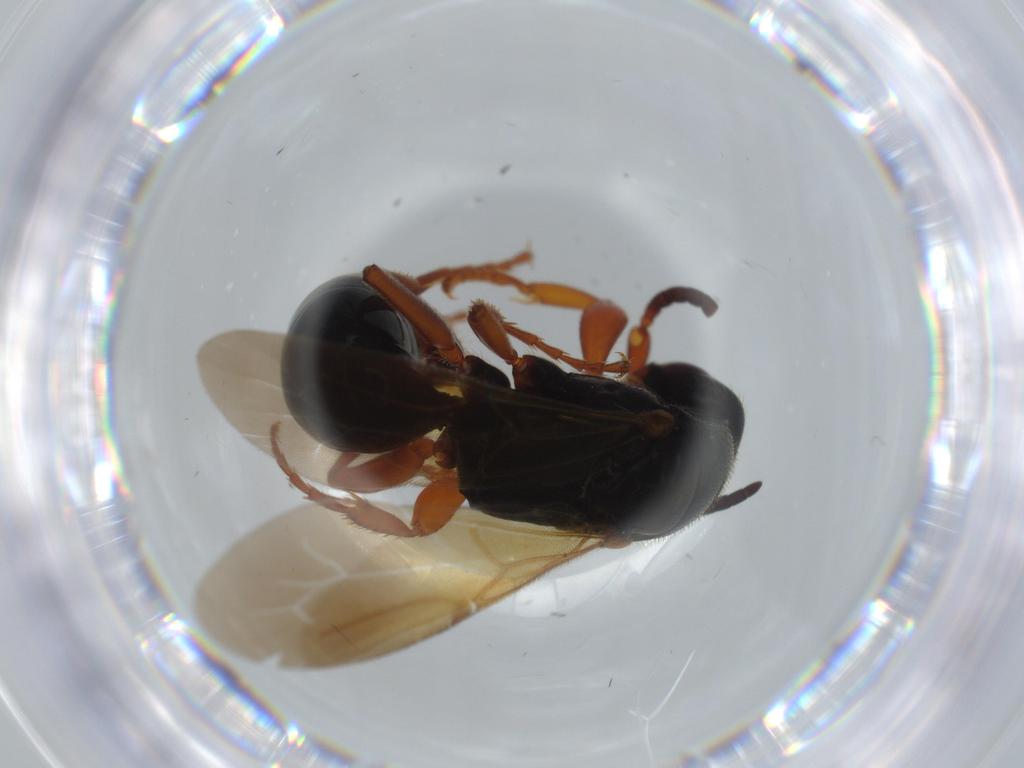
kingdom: Animalia
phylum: Arthropoda
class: Insecta
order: Hymenoptera
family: Bethylidae
